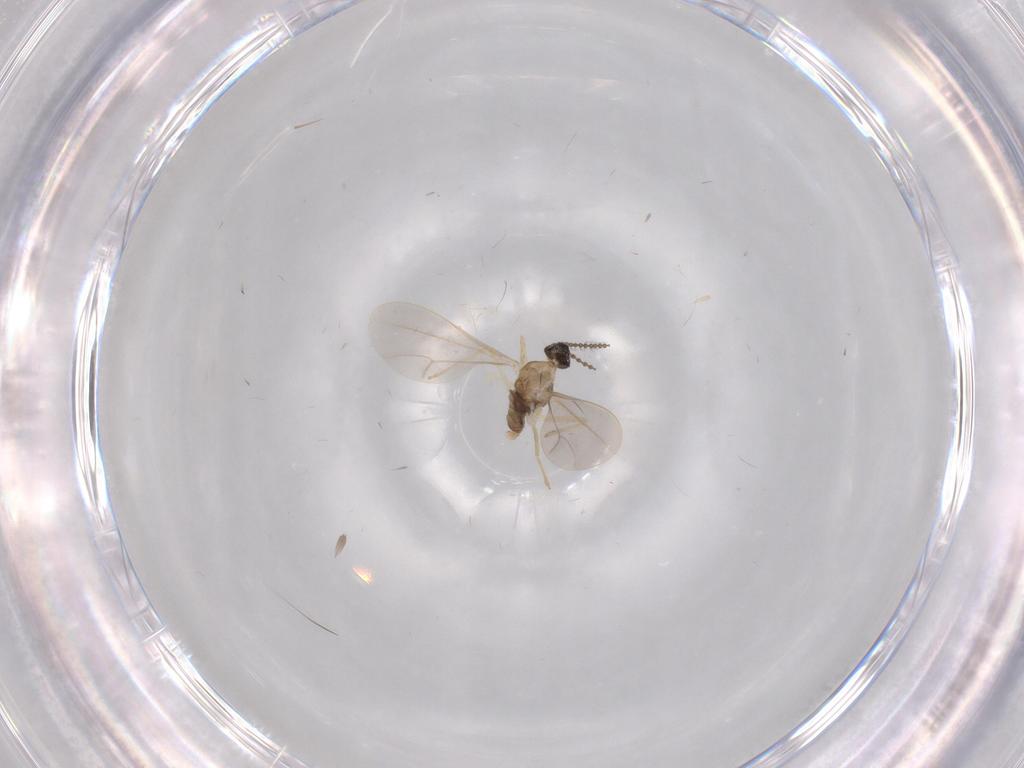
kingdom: Animalia
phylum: Arthropoda
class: Insecta
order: Diptera
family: Cecidomyiidae
